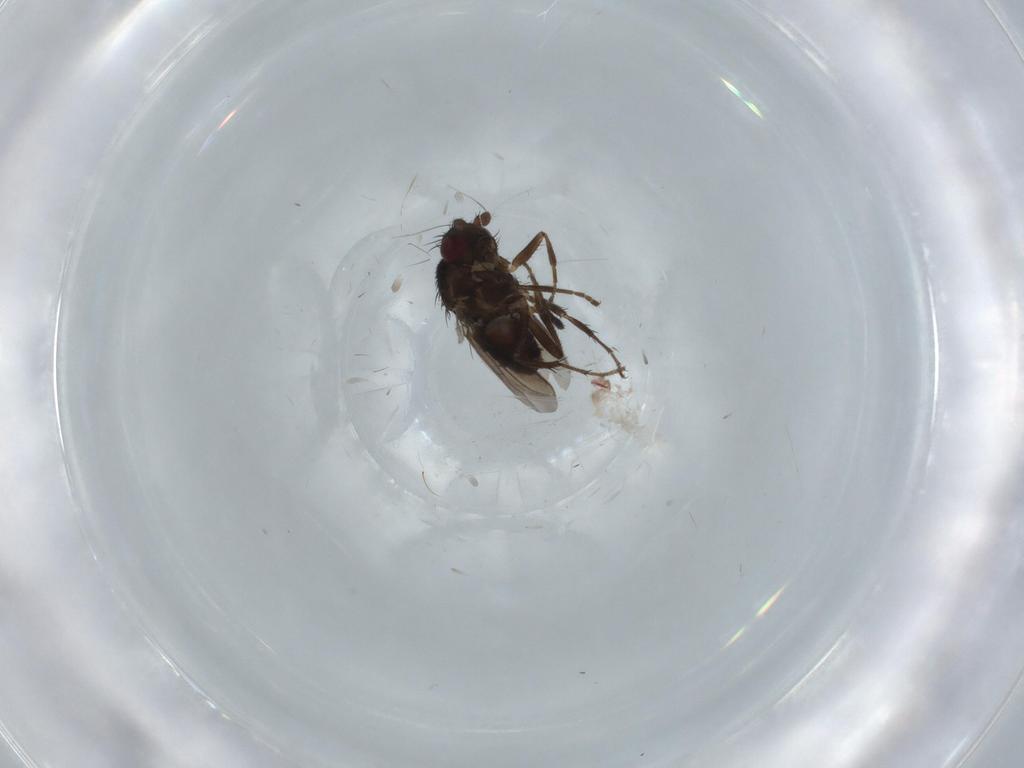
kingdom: Animalia
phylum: Arthropoda
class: Insecta
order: Diptera
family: Cecidomyiidae
